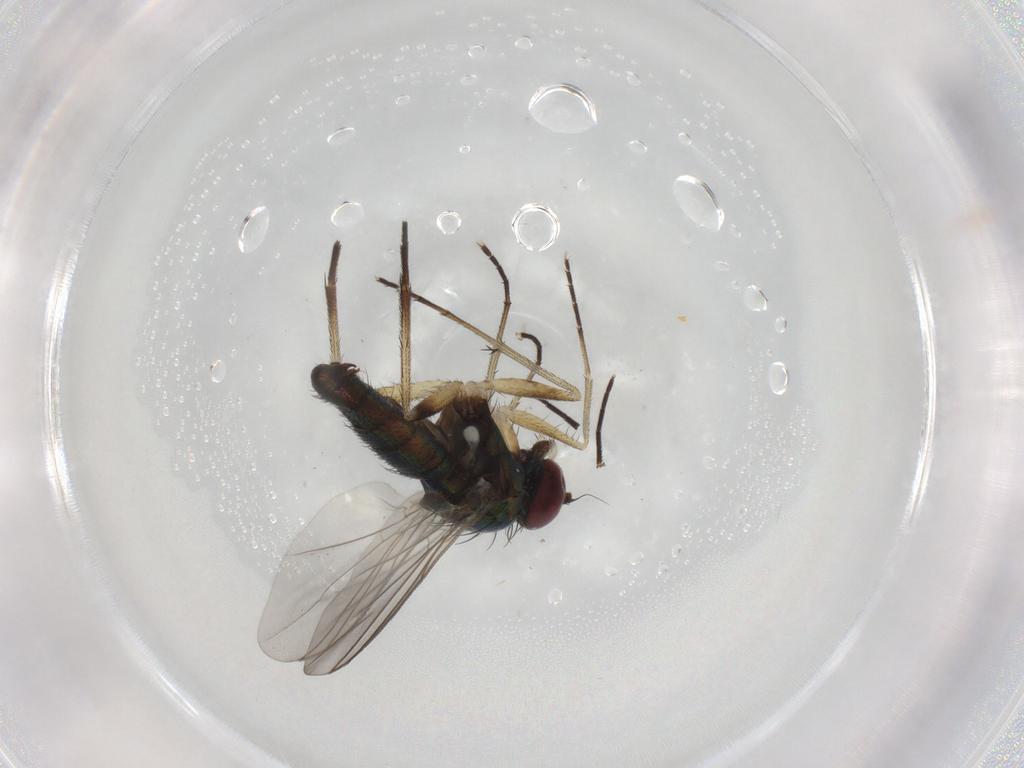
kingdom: Animalia
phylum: Arthropoda
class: Insecta
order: Diptera
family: Dolichopodidae
